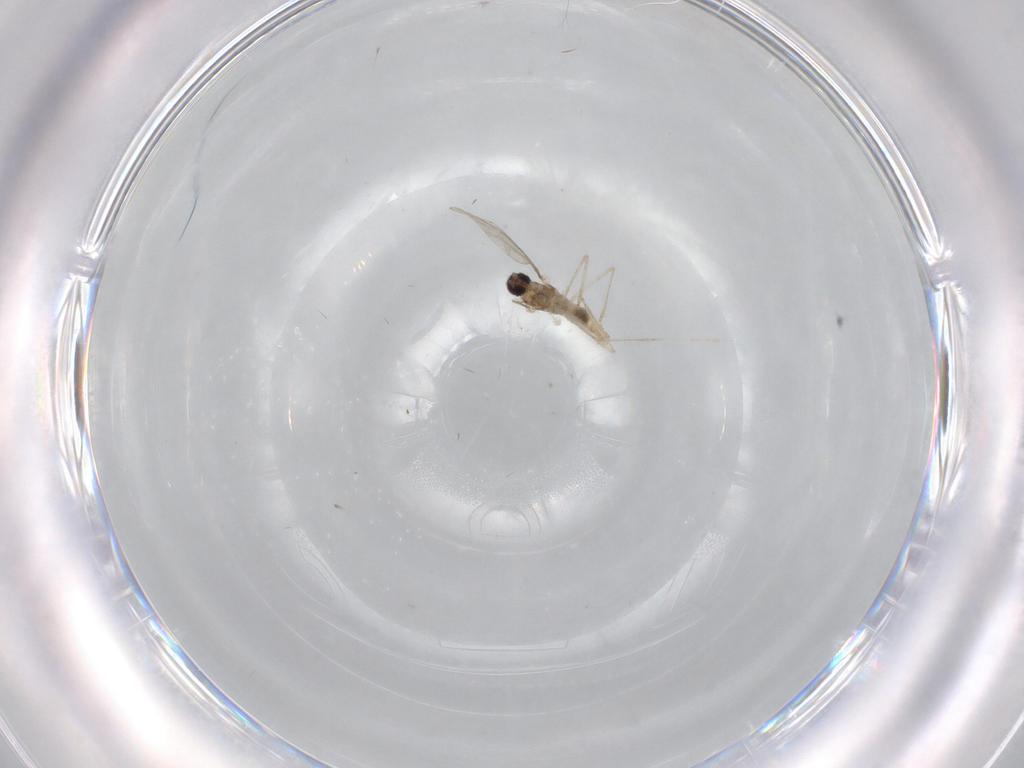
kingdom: Animalia
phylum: Arthropoda
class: Insecta
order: Diptera
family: Cecidomyiidae
